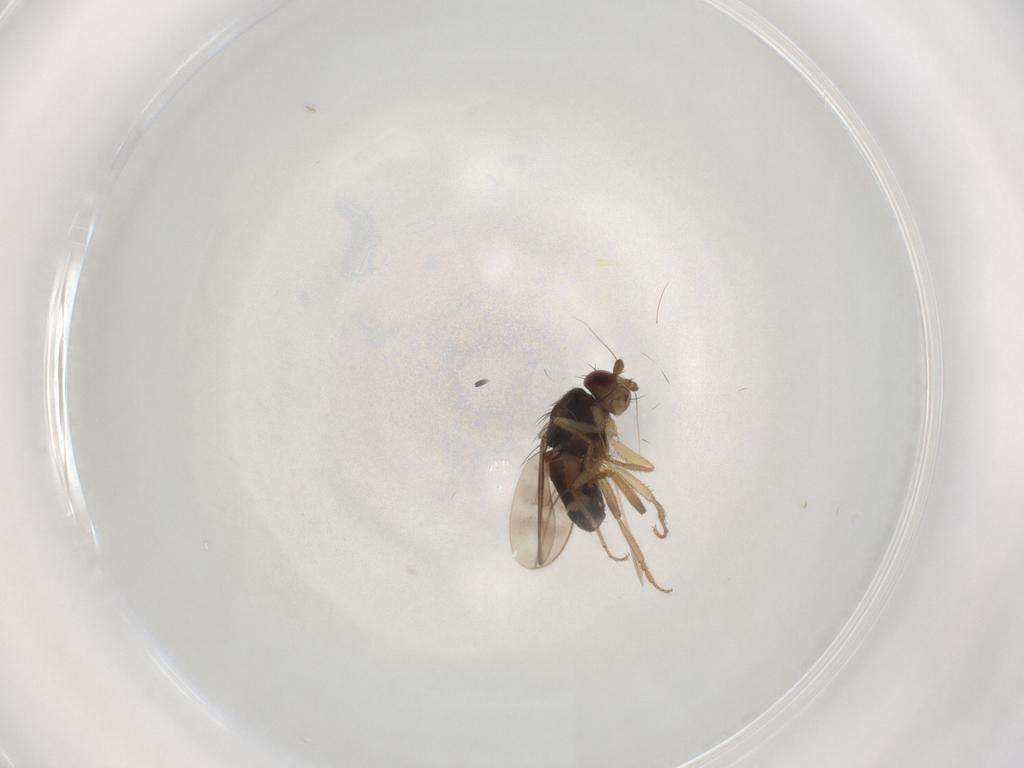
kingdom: Animalia
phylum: Arthropoda
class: Insecta
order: Diptera
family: Sphaeroceridae
